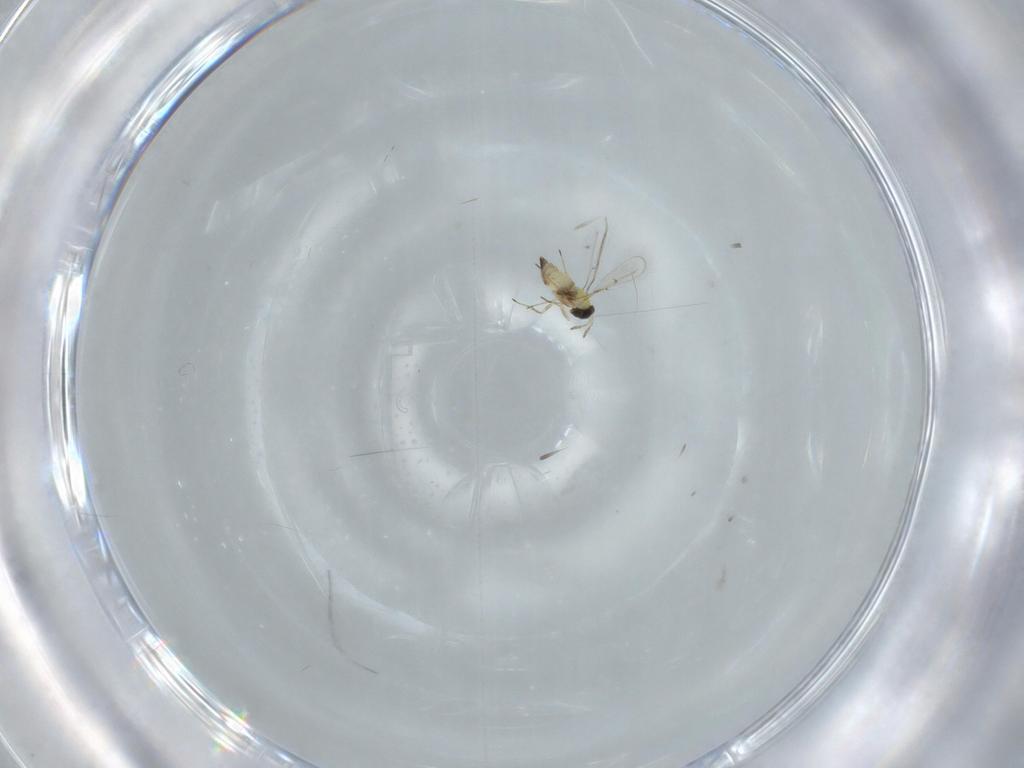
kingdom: Animalia
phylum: Arthropoda
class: Insecta
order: Hymenoptera
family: Trichogrammatidae
